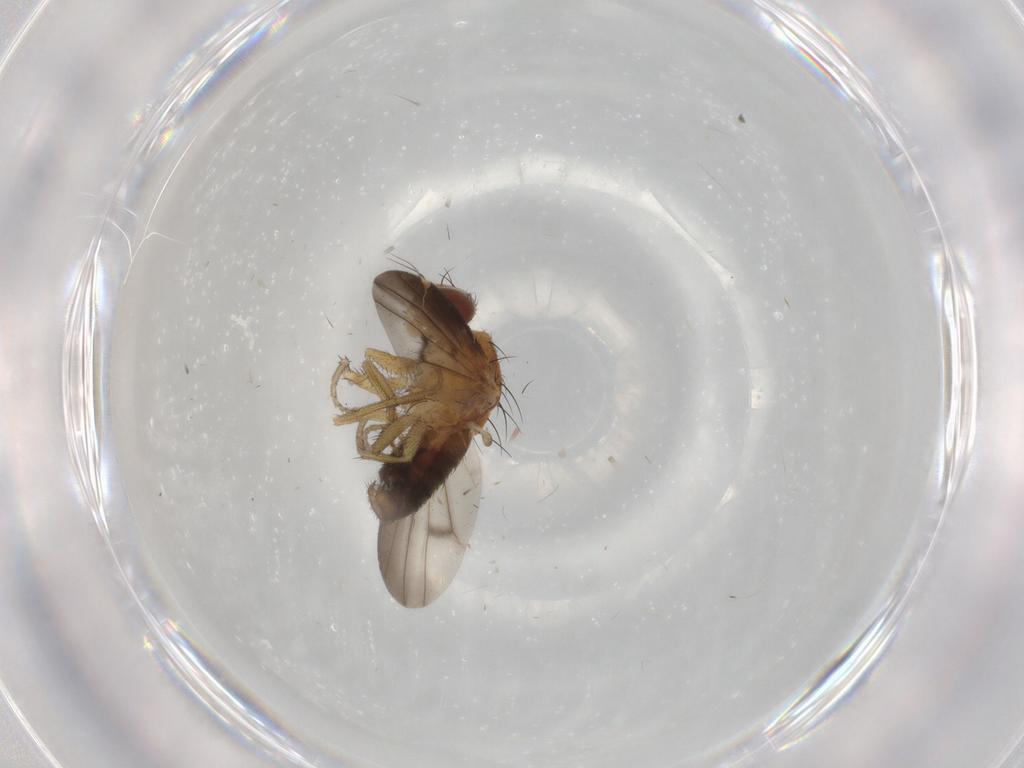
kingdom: Animalia
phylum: Arthropoda
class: Insecta
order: Diptera
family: Heleomyzidae
